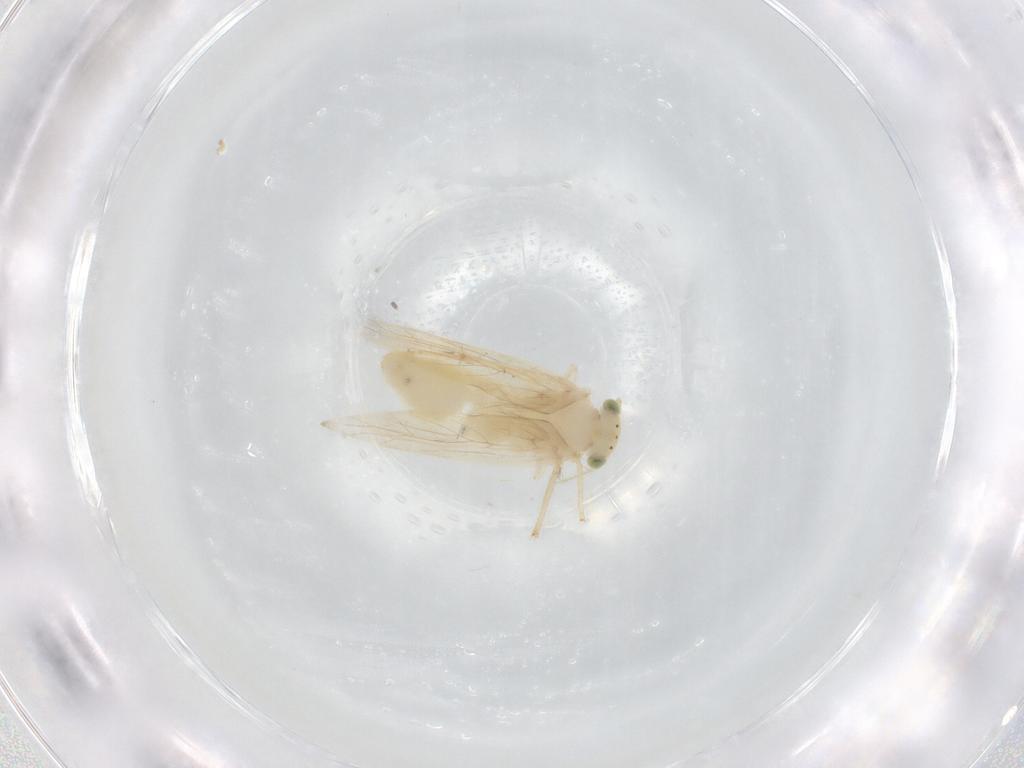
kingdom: Animalia
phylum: Arthropoda
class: Insecta
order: Psocodea
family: Lepidopsocidae
